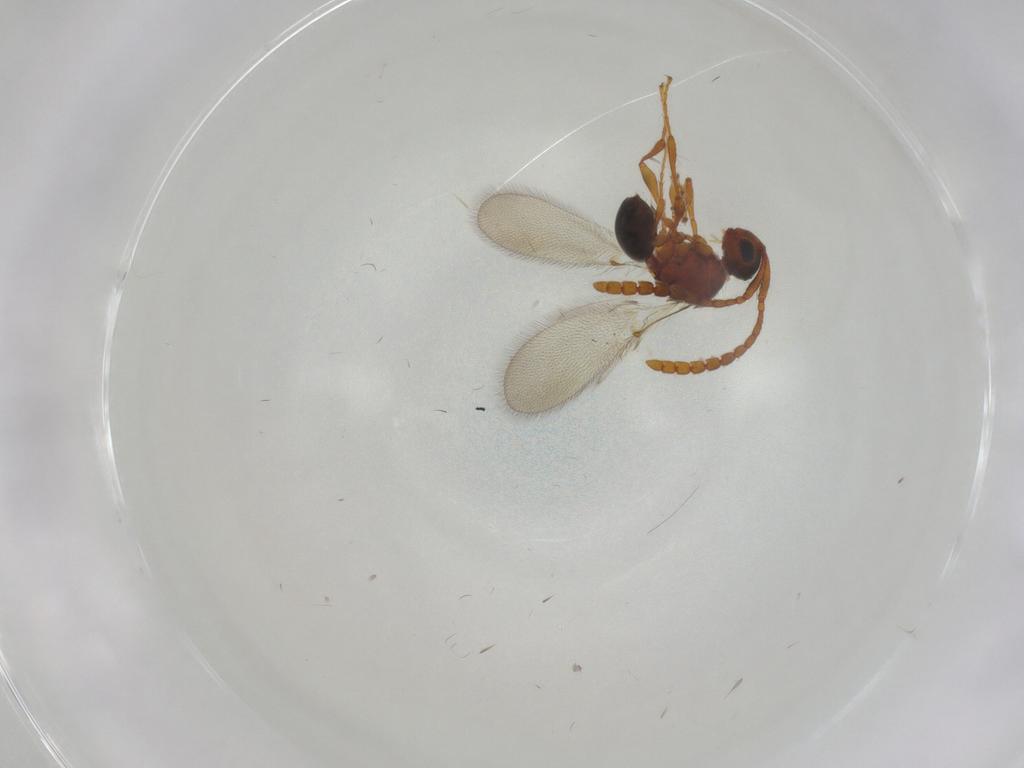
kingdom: Animalia
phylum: Arthropoda
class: Insecta
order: Hymenoptera
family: Diapriidae
